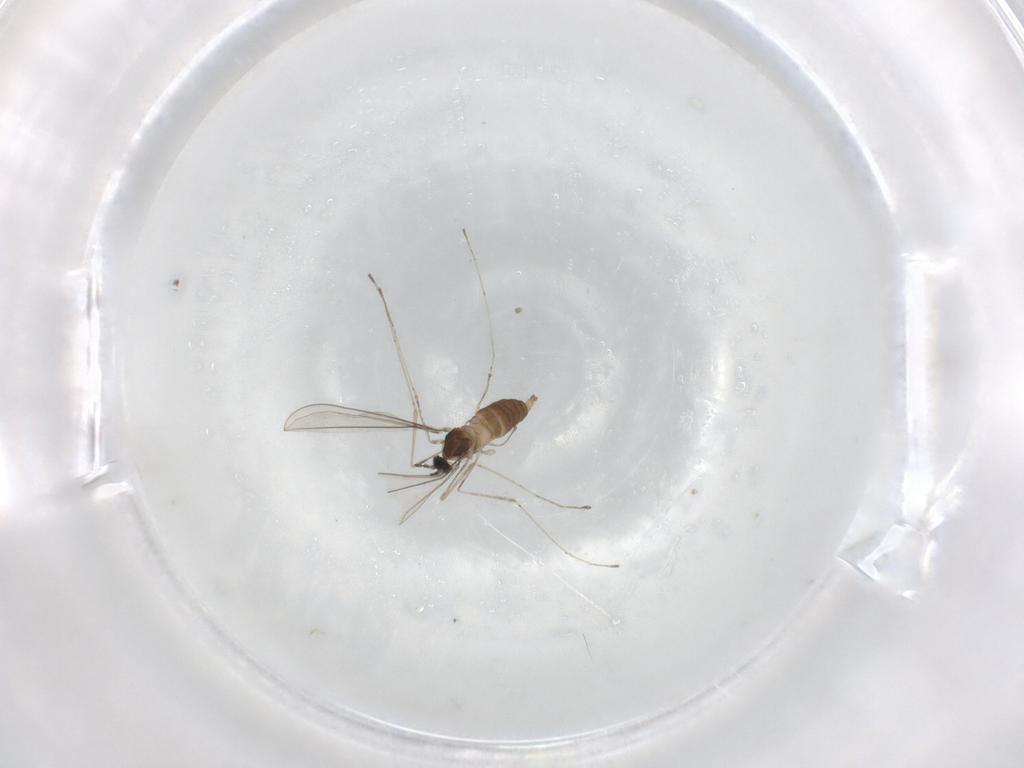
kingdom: Animalia
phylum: Arthropoda
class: Insecta
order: Diptera
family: Cecidomyiidae
